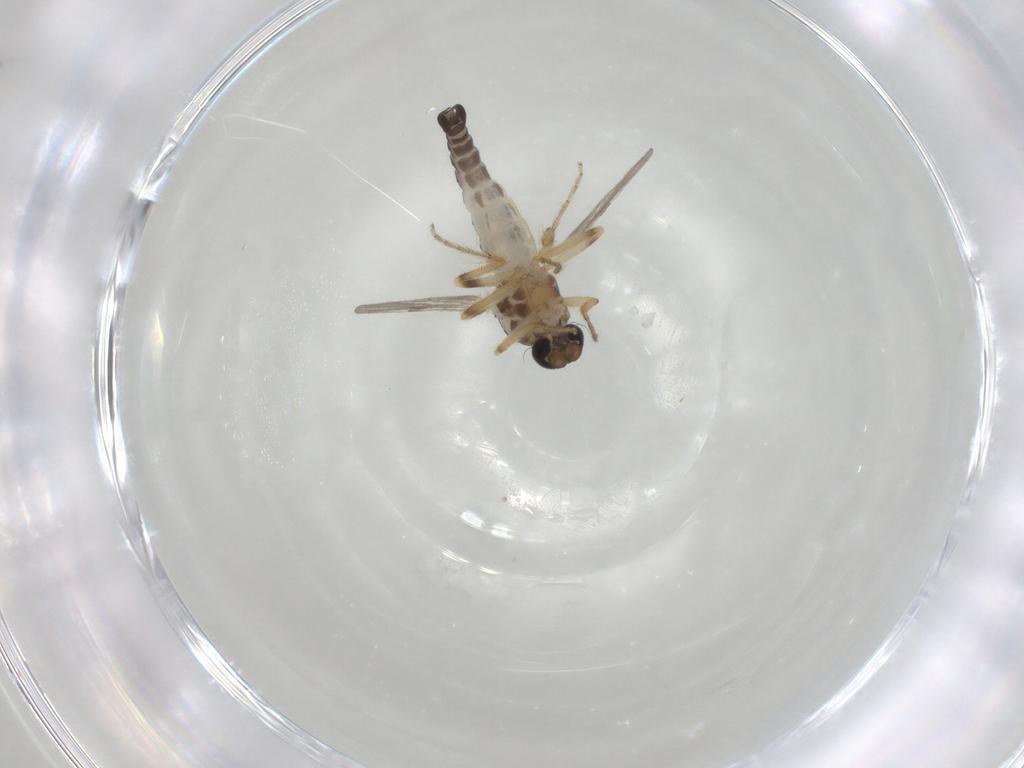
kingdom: Animalia
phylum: Arthropoda
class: Insecta
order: Diptera
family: Ceratopogonidae
